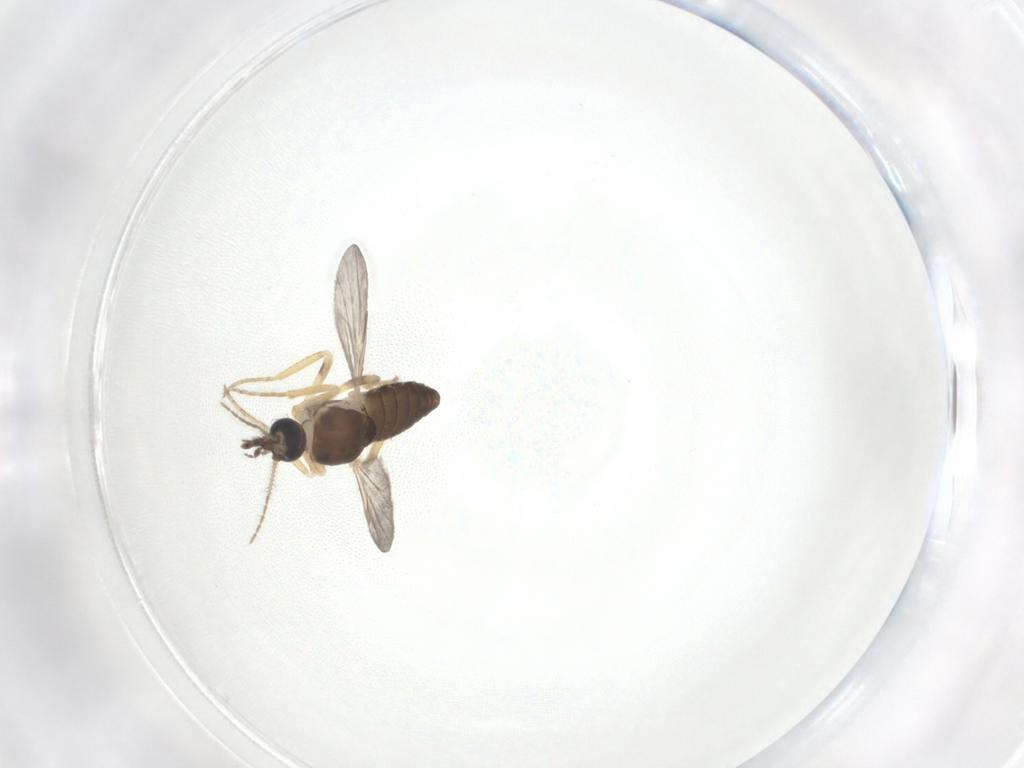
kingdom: Animalia
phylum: Arthropoda
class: Insecta
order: Diptera
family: Ceratopogonidae
